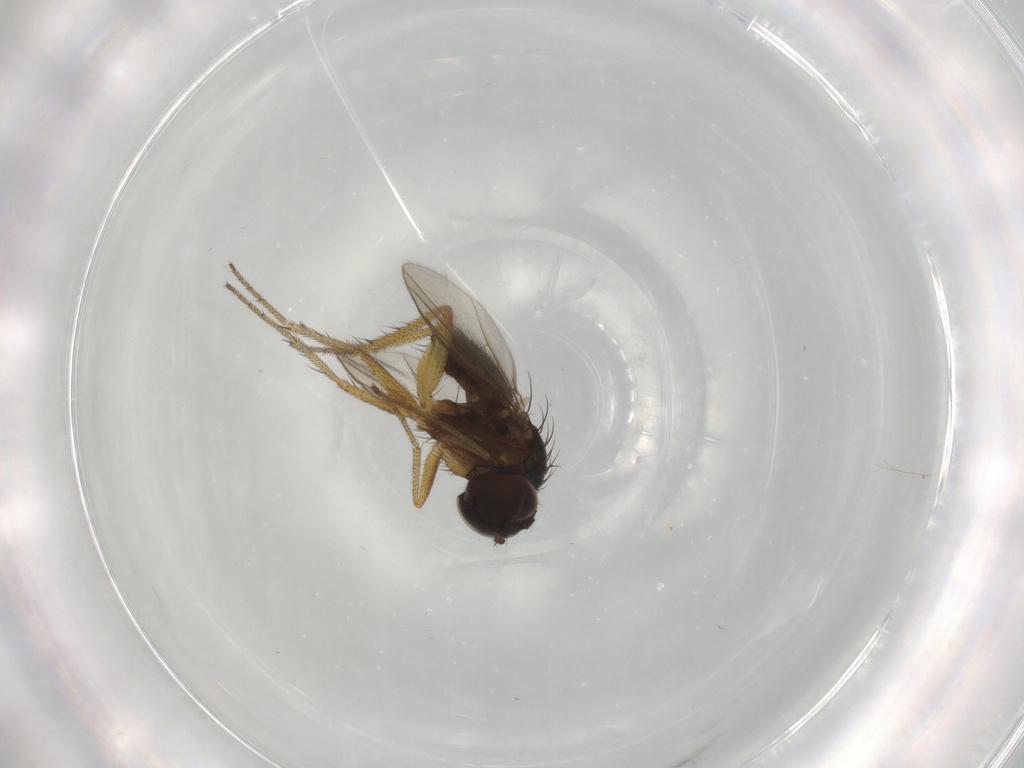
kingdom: Animalia
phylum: Arthropoda
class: Insecta
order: Diptera
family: Dolichopodidae
